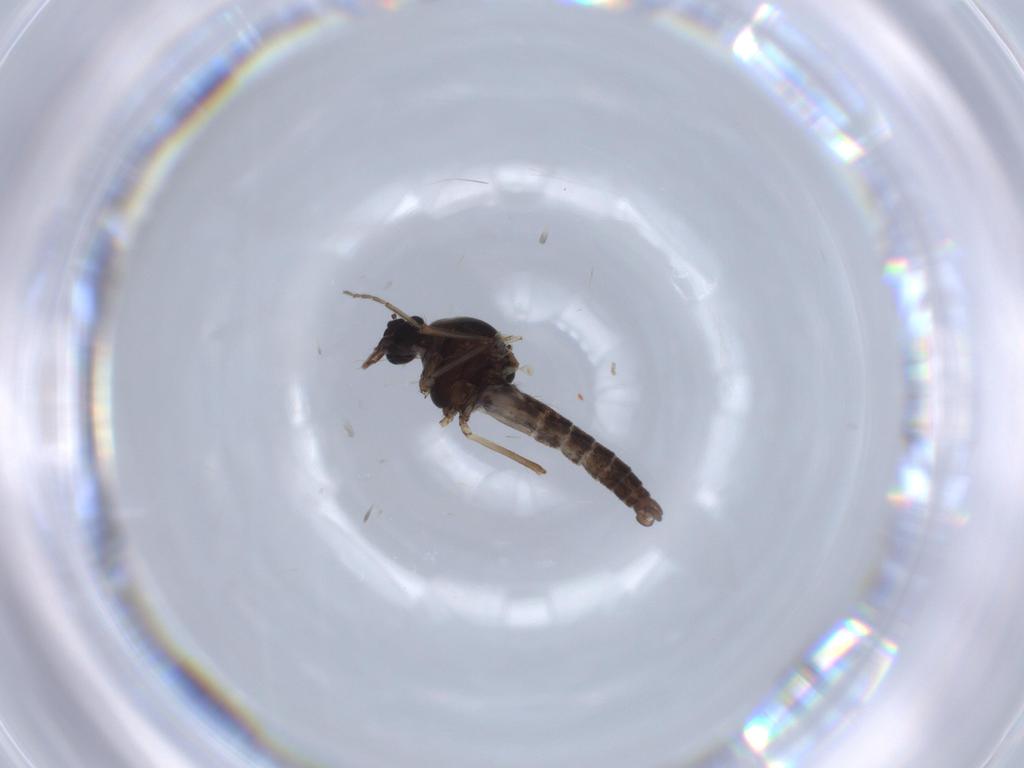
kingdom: Animalia
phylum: Arthropoda
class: Insecta
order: Diptera
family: Ceratopogonidae
